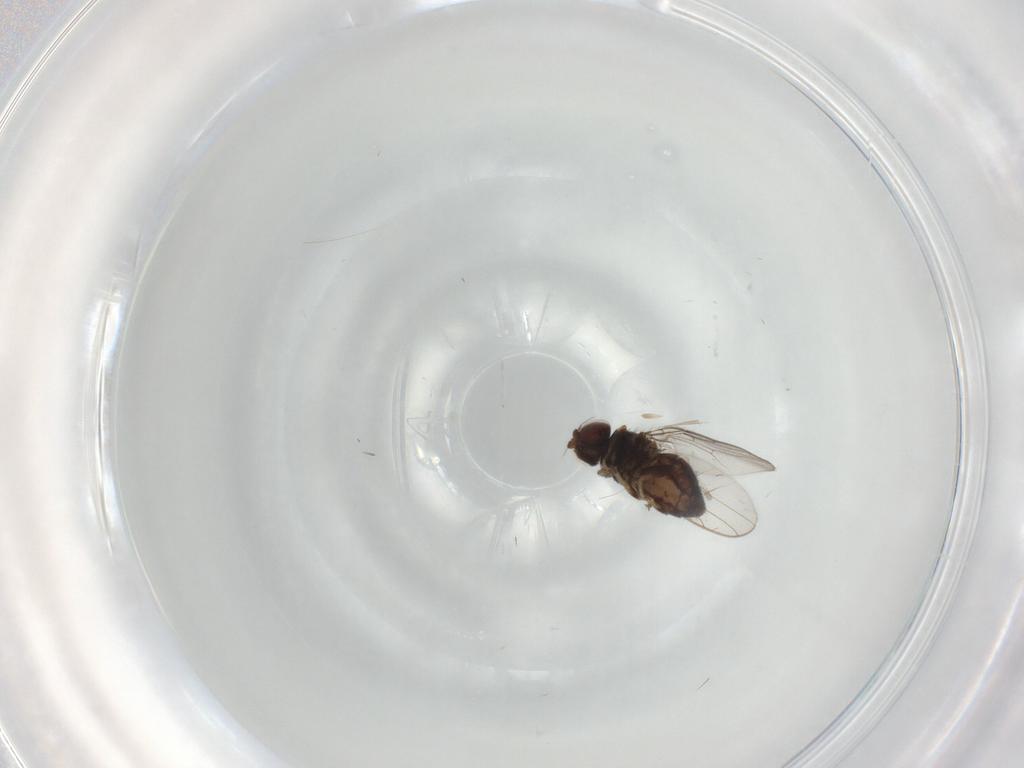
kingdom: Animalia
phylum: Arthropoda
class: Insecta
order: Diptera
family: Chloropidae
